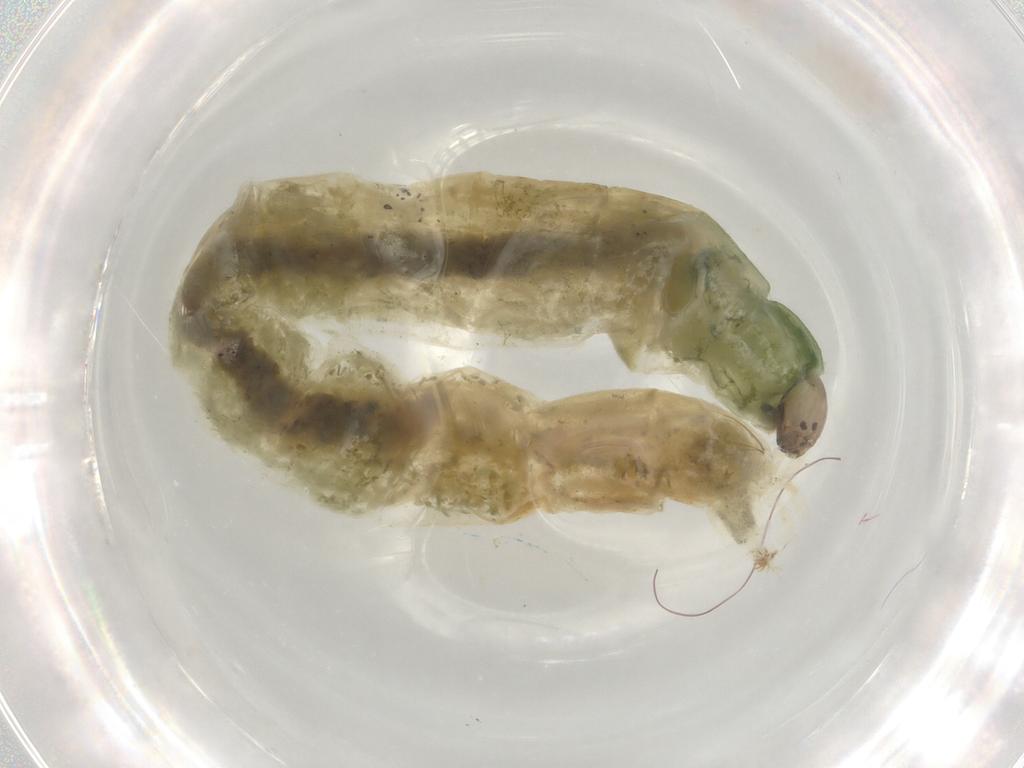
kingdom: Animalia
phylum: Arthropoda
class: Insecta
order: Diptera
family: Chironomidae
